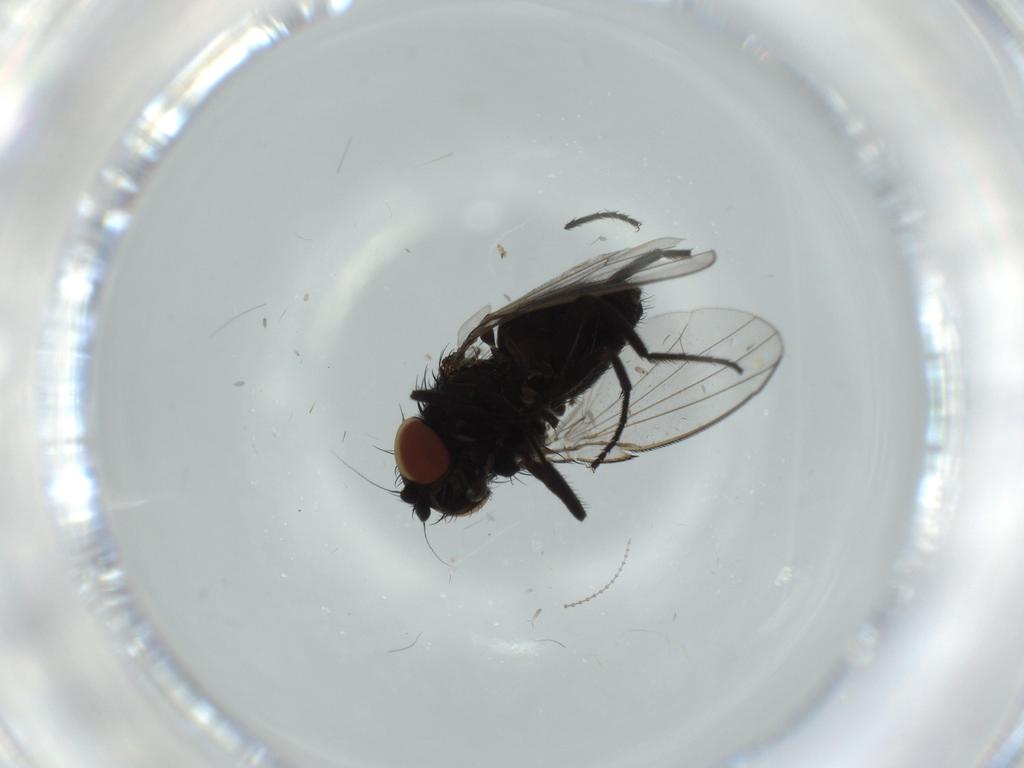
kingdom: Animalia
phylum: Arthropoda
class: Insecta
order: Diptera
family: Milichiidae
